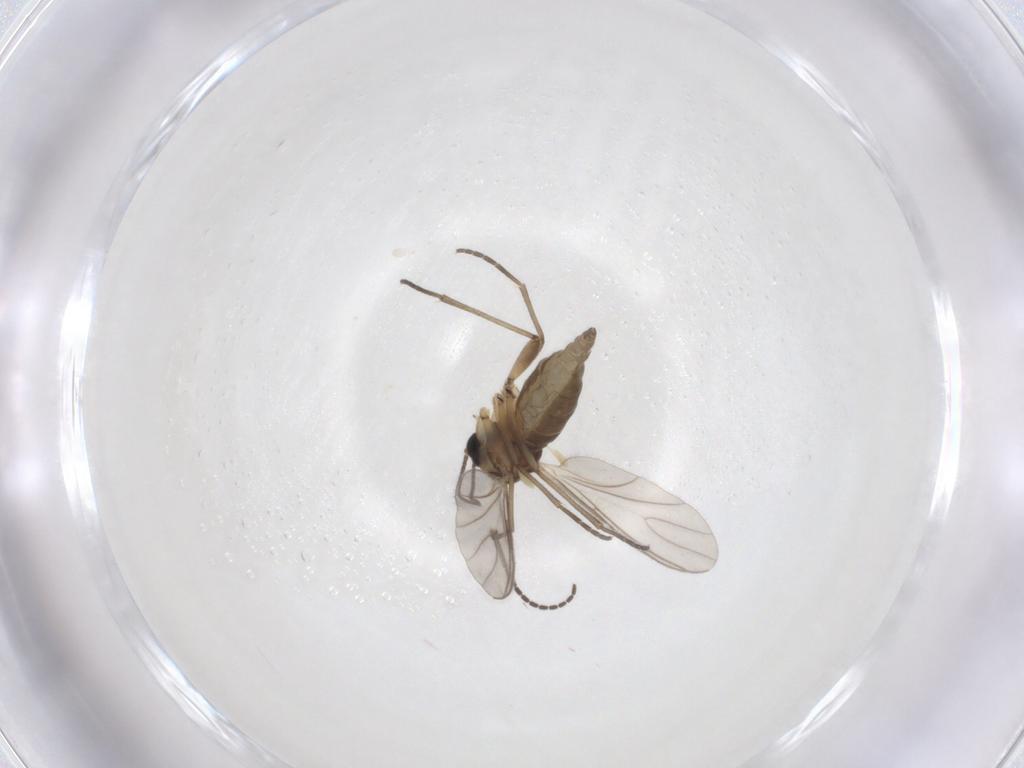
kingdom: Animalia
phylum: Arthropoda
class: Insecta
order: Diptera
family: Sciaridae
